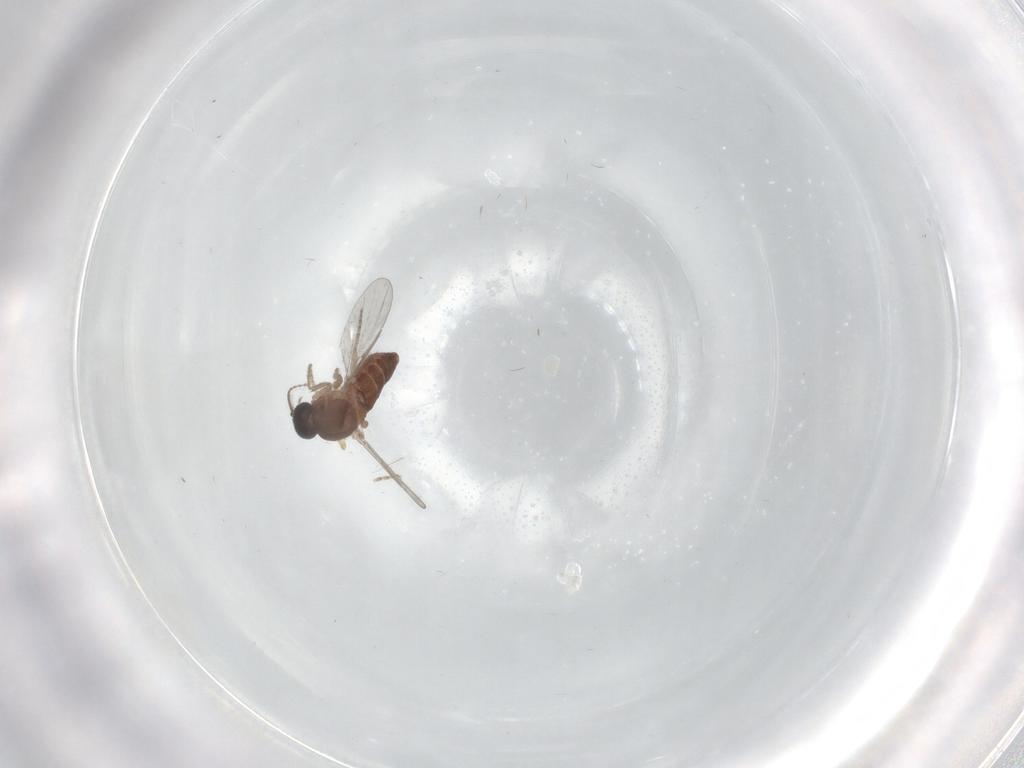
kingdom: Animalia
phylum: Arthropoda
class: Insecta
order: Diptera
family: Ceratopogonidae
